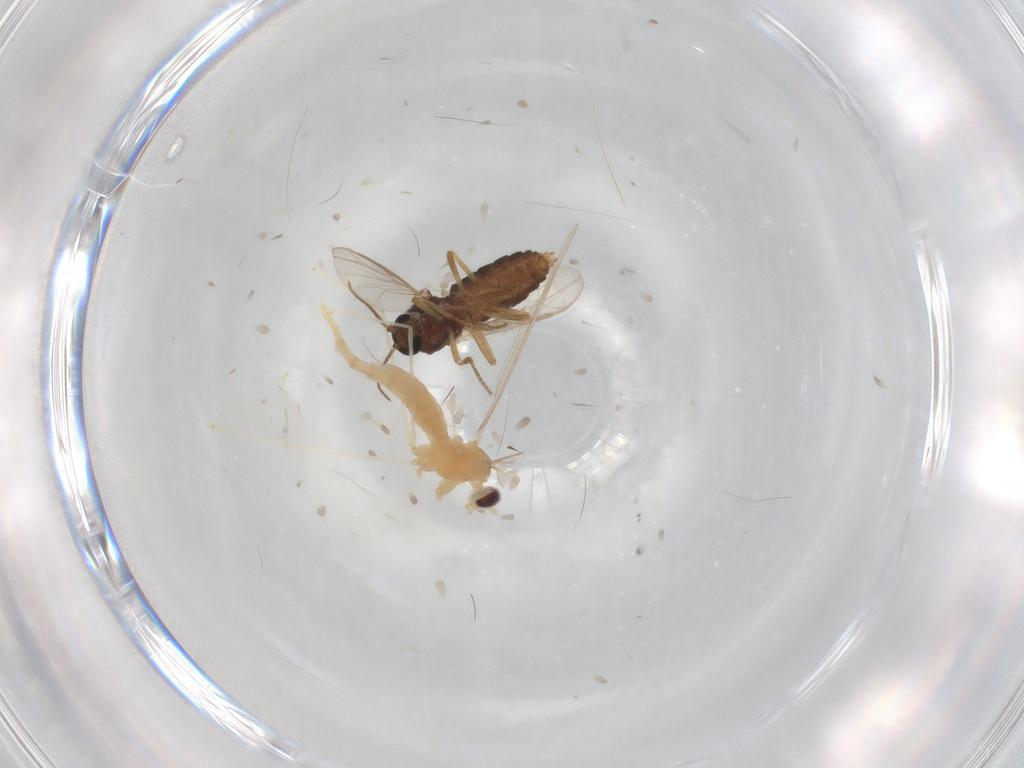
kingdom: Animalia
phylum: Arthropoda
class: Insecta
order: Diptera
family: Cecidomyiidae
